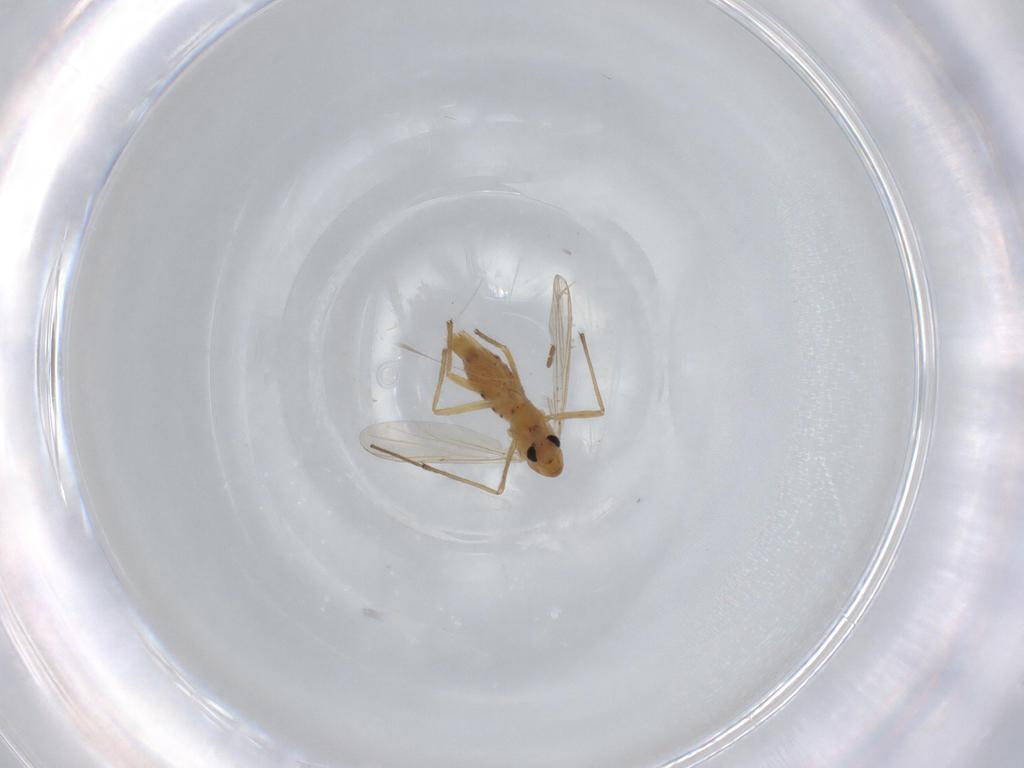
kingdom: Animalia
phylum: Arthropoda
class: Insecta
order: Diptera
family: Chironomidae
